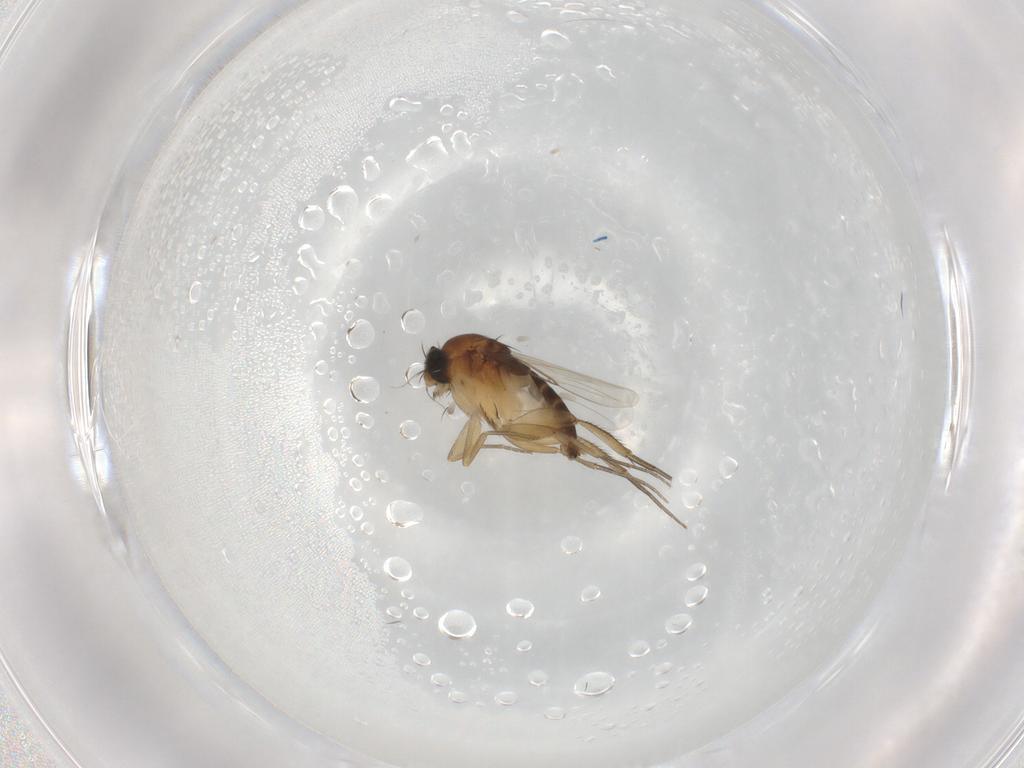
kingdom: Animalia
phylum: Arthropoda
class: Insecta
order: Diptera
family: Phoridae
